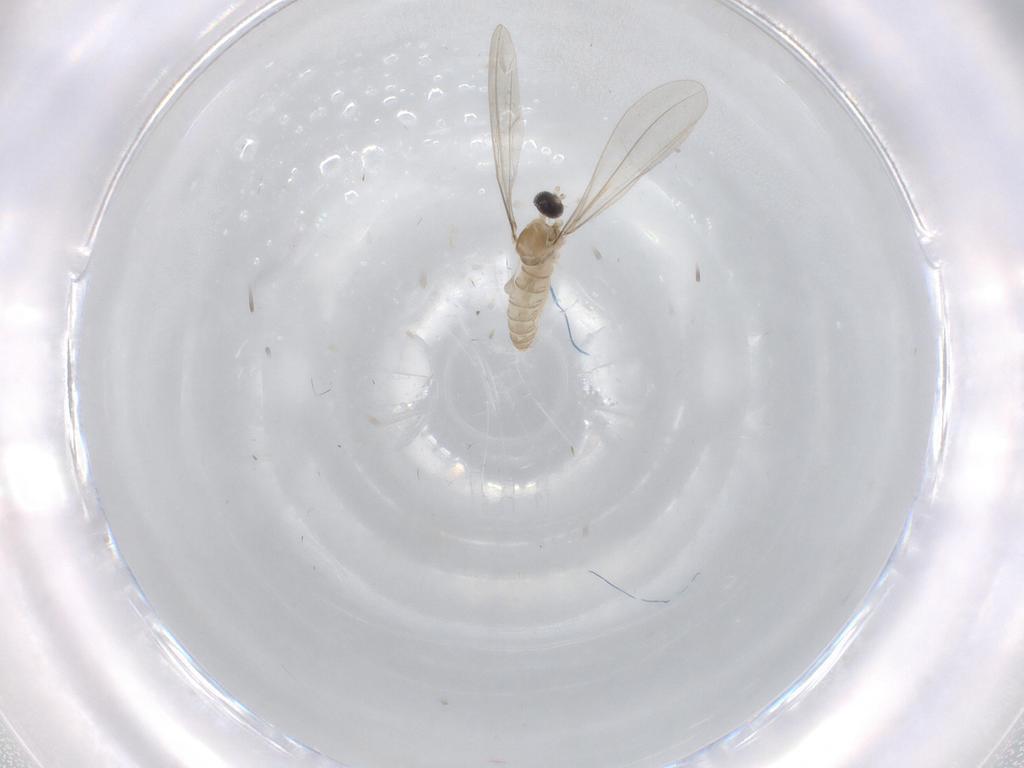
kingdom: Animalia
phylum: Arthropoda
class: Insecta
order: Diptera
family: Cecidomyiidae
